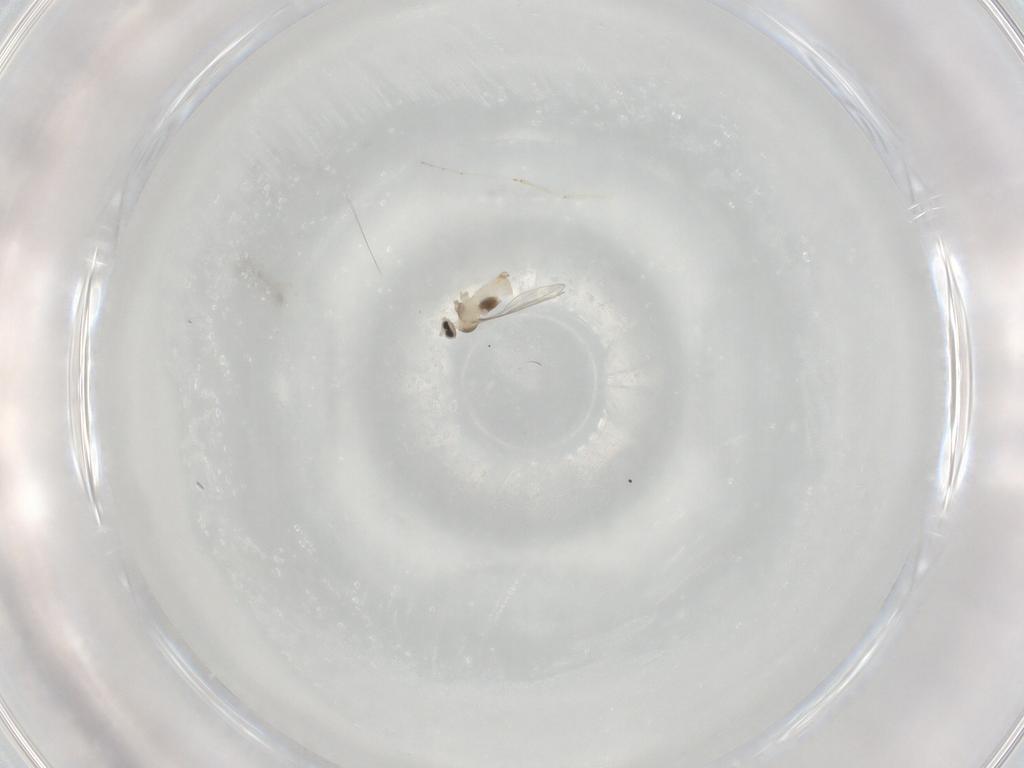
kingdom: Animalia
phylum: Arthropoda
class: Insecta
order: Diptera
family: Cecidomyiidae
